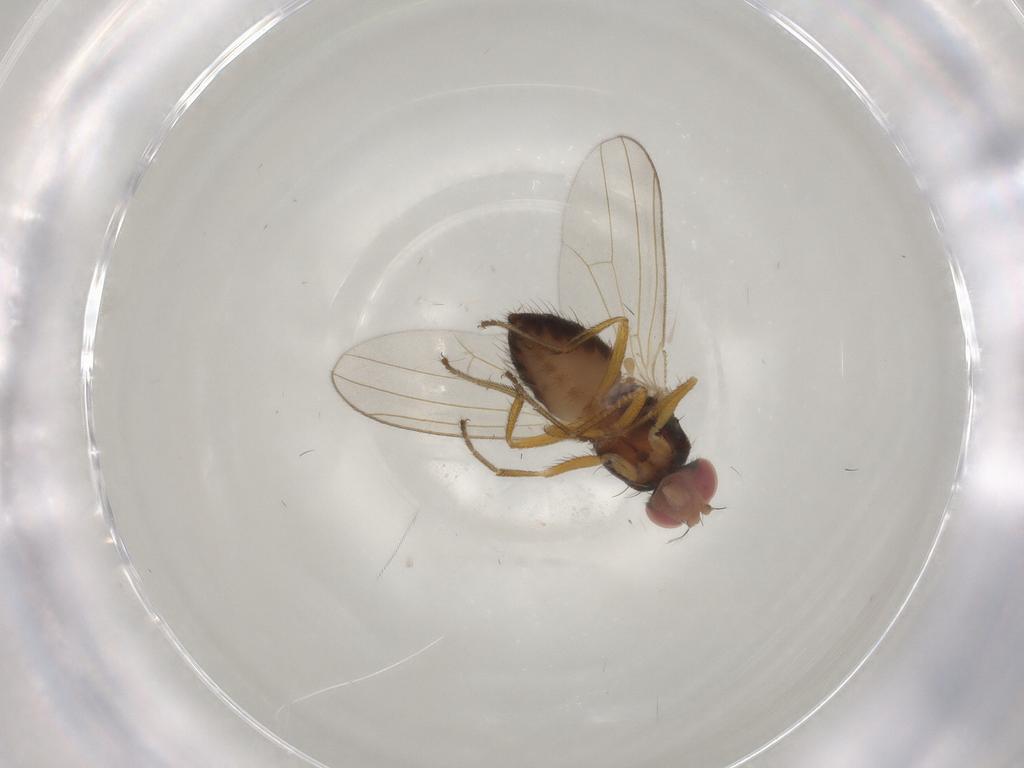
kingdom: Animalia
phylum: Arthropoda
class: Insecta
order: Diptera
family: Drosophilidae
